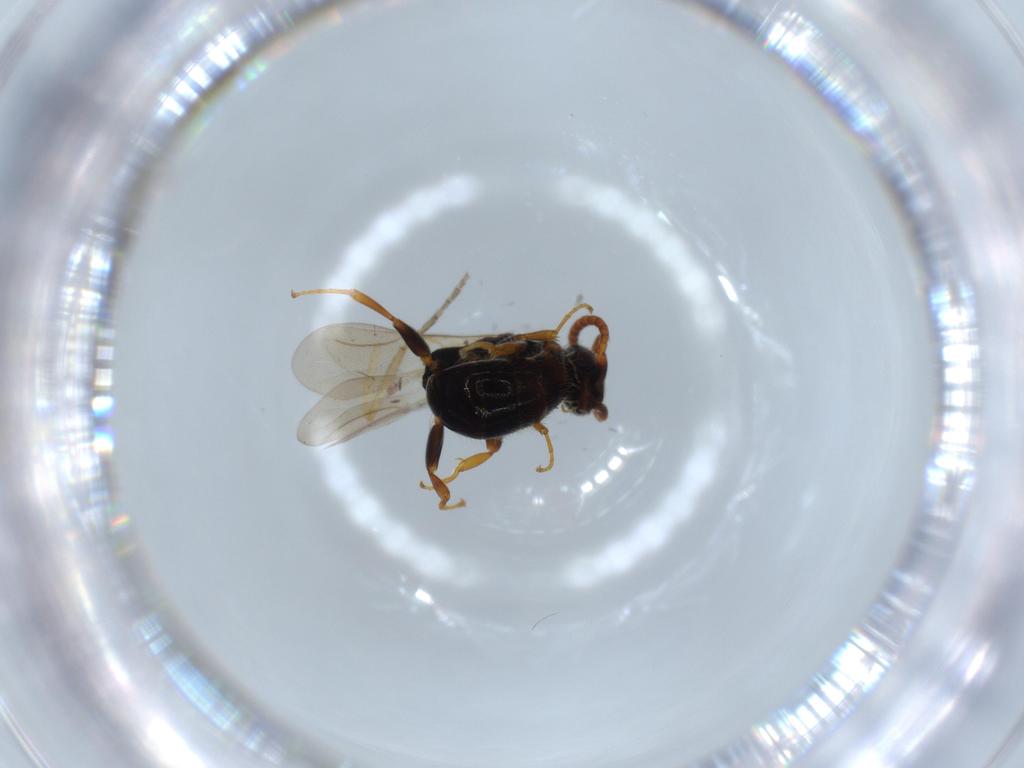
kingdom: Animalia
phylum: Arthropoda
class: Insecta
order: Hymenoptera
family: Bethylidae
